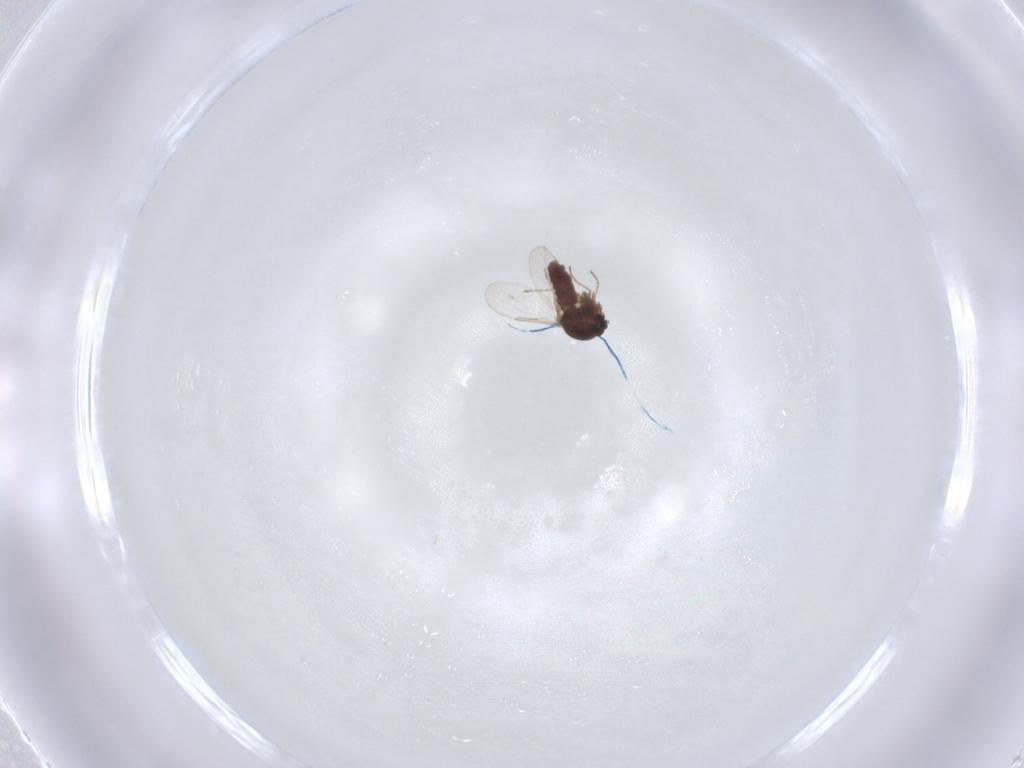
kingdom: Animalia
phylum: Arthropoda
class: Insecta
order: Diptera
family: Ceratopogonidae
